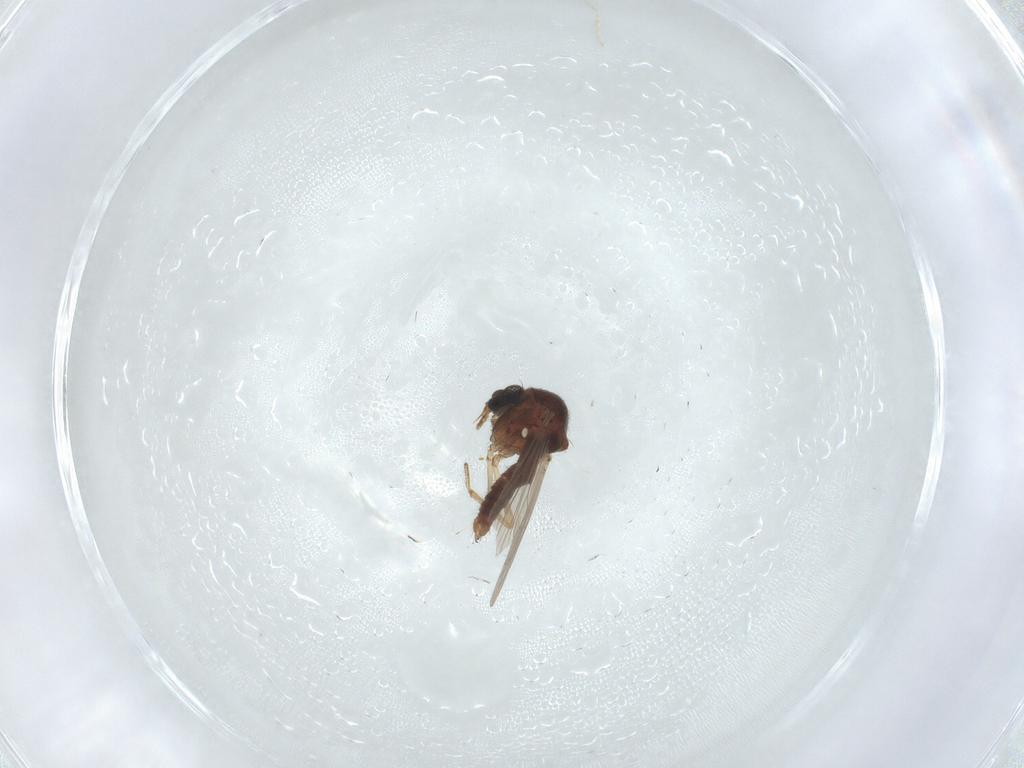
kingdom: Animalia
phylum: Arthropoda
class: Insecta
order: Diptera
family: Ceratopogonidae
